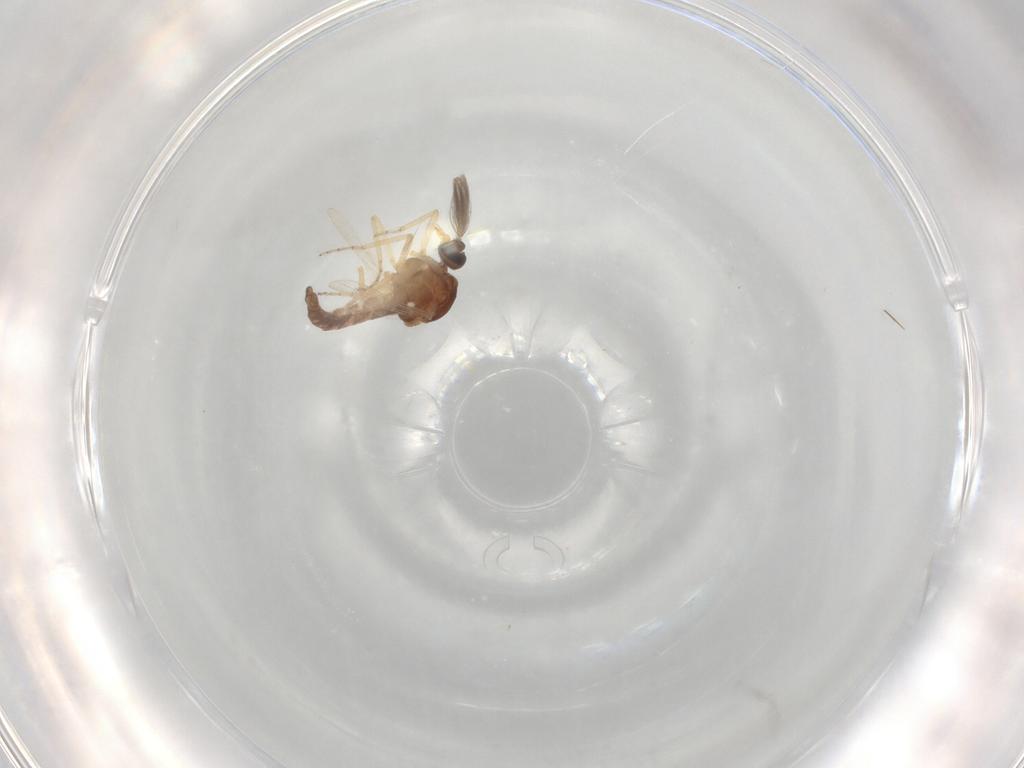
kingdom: Animalia
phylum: Arthropoda
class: Insecta
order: Diptera
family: Ceratopogonidae
